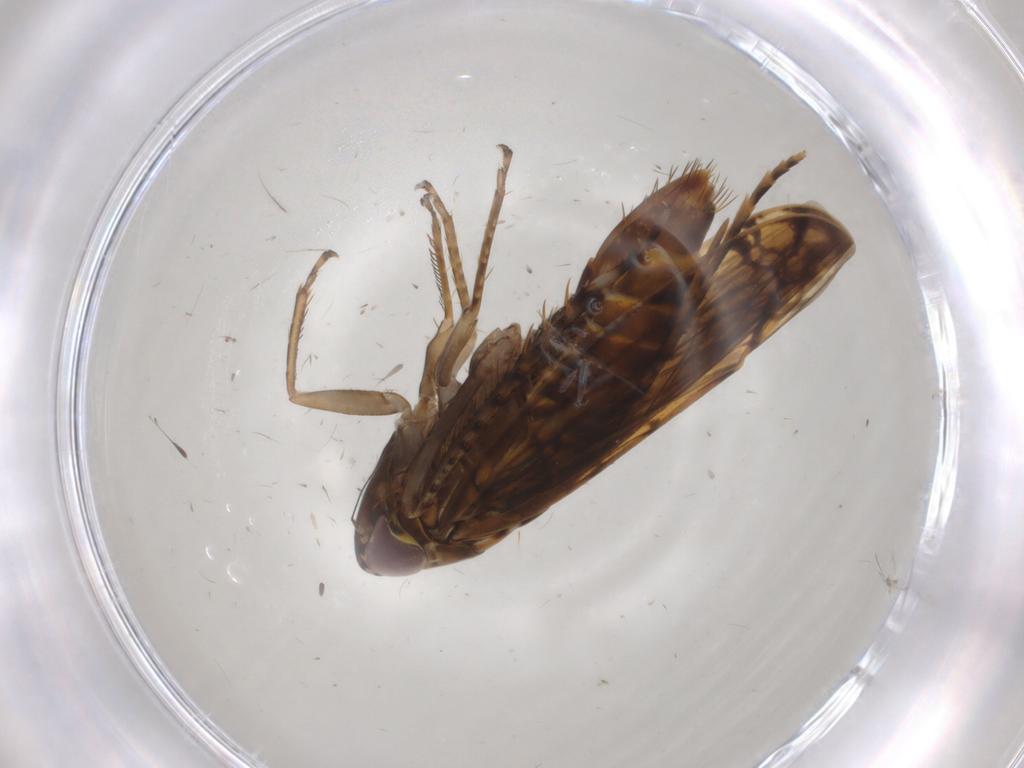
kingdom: Animalia
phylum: Arthropoda
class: Insecta
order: Hemiptera
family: Cicadellidae
